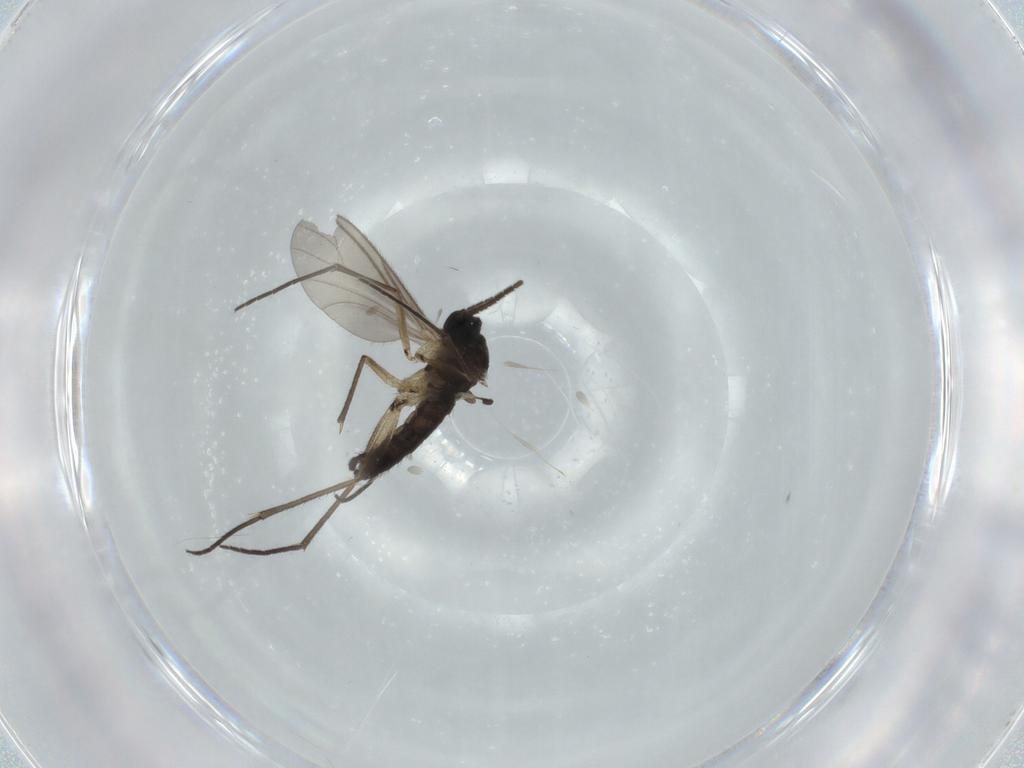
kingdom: Animalia
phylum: Arthropoda
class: Insecta
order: Diptera
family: Sciaridae
